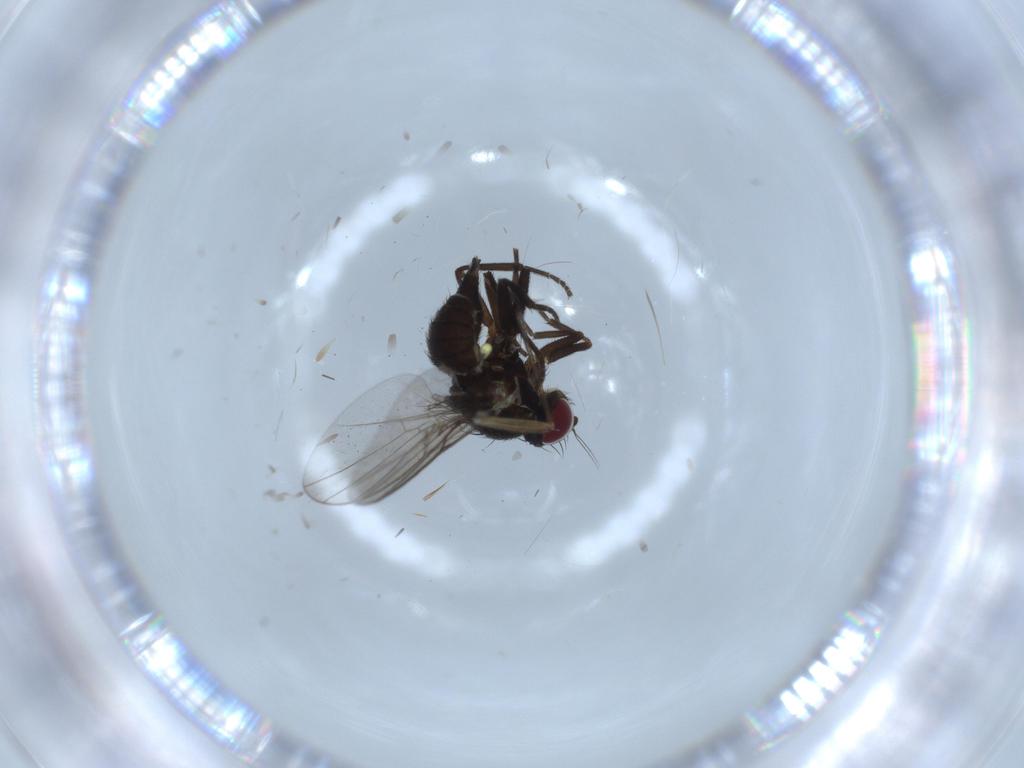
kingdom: Animalia
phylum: Arthropoda
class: Insecta
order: Diptera
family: Sciaridae
